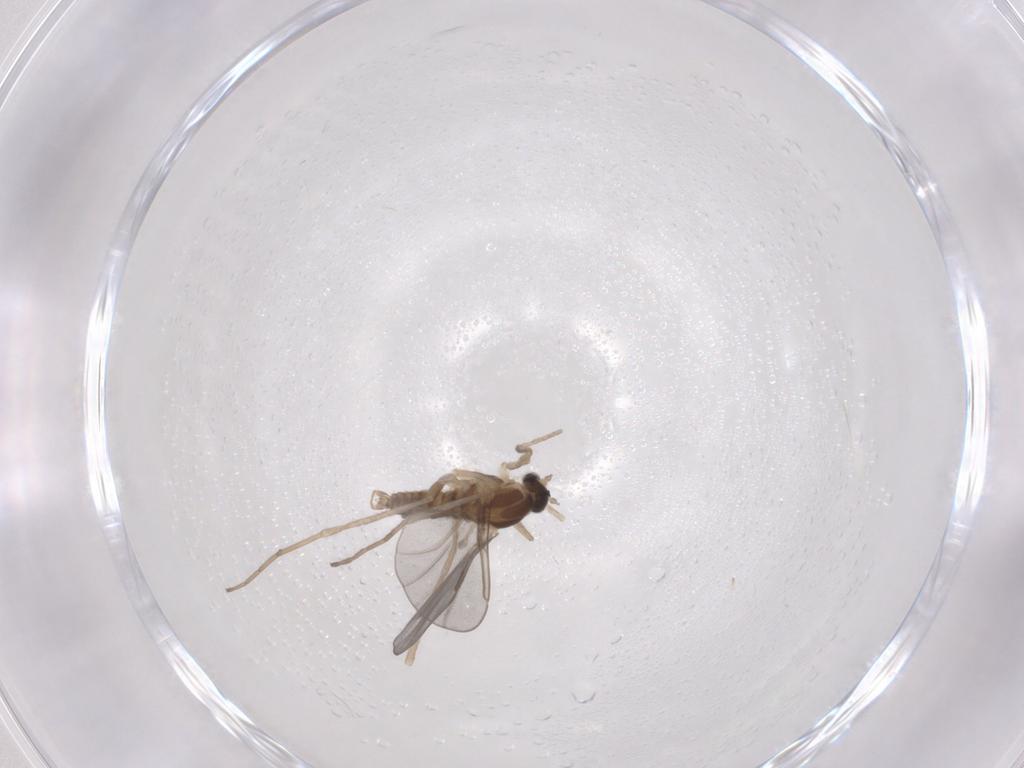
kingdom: Animalia
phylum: Arthropoda
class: Insecta
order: Diptera
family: Cecidomyiidae
